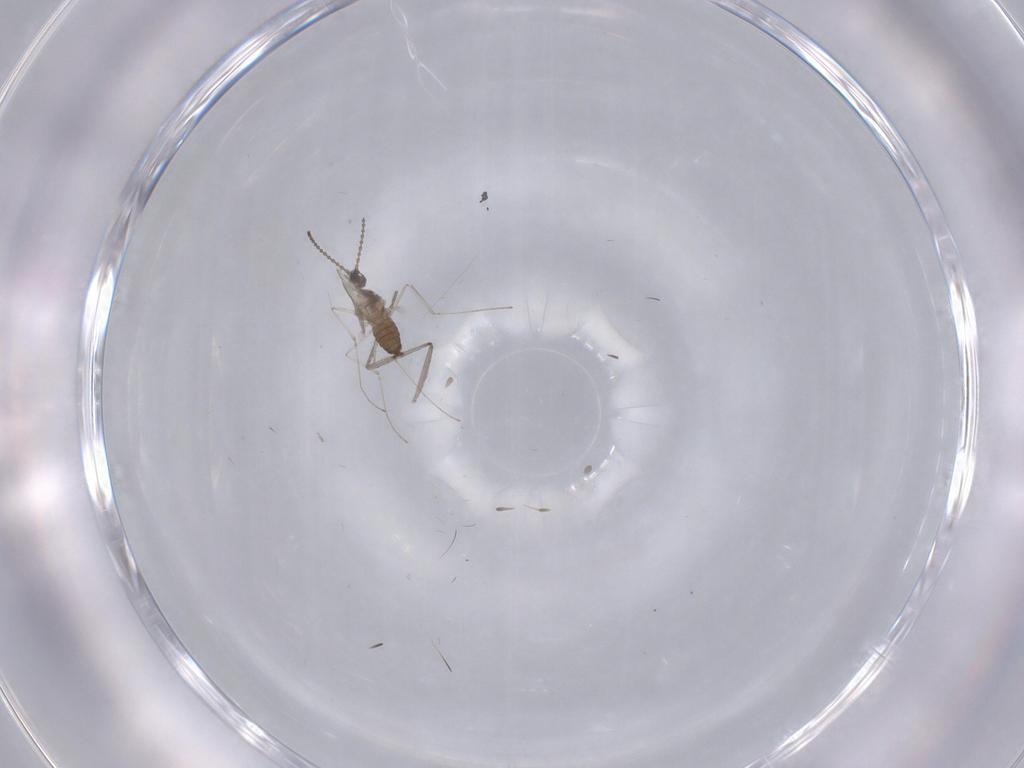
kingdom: Animalia
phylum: Arthropoda
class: Insecta
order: Diptera
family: Cecidomyiidae
